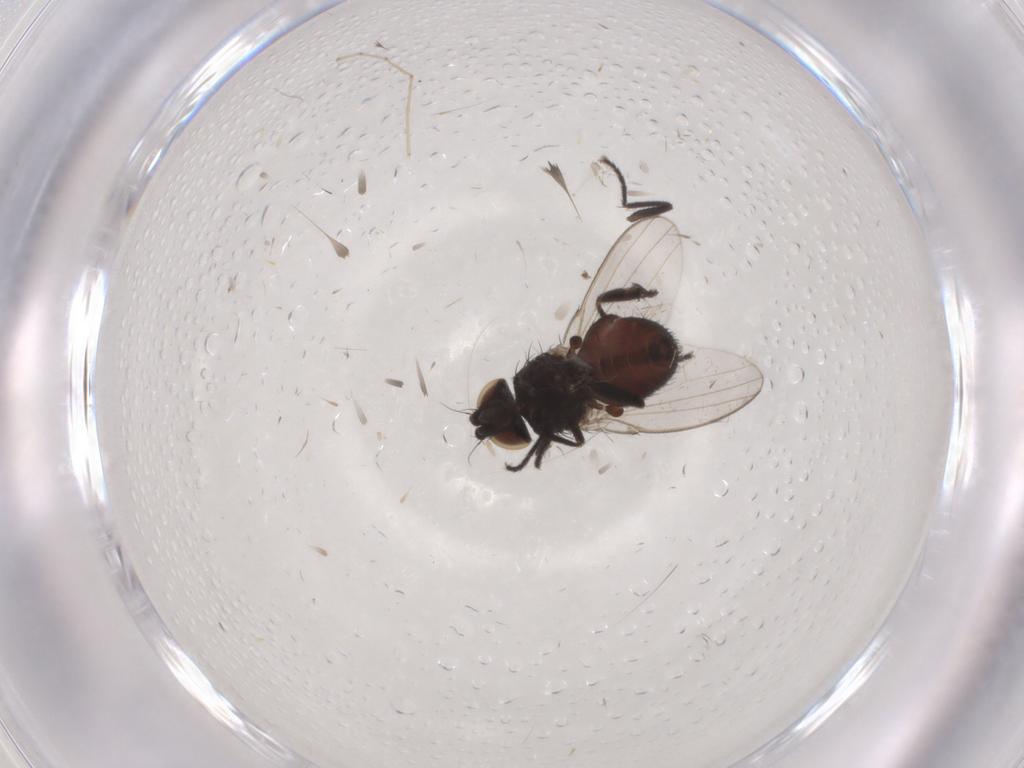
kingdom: Animalia
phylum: Arthropoda
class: Insecta
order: Diptera
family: Milichiidae
